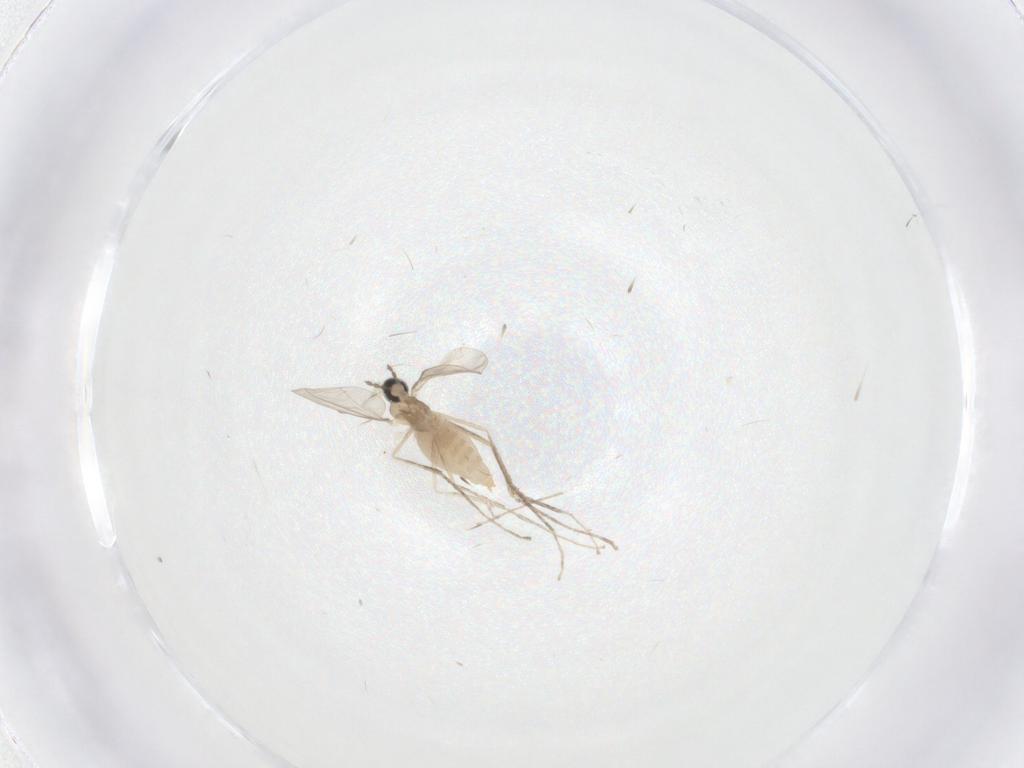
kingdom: Animalia
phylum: Arthropoda
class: Insecta
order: Diptera
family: Cecidomyiidae
